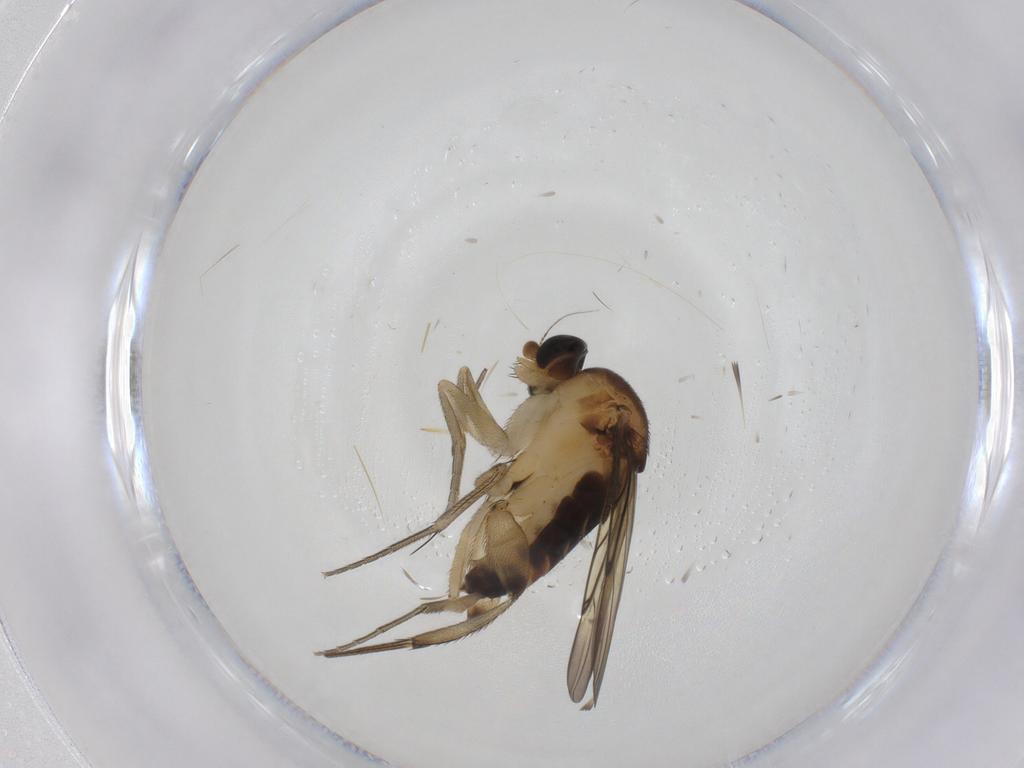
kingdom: Animalia
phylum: Arthropoda
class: Insecta
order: Diptera
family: Phoridae
